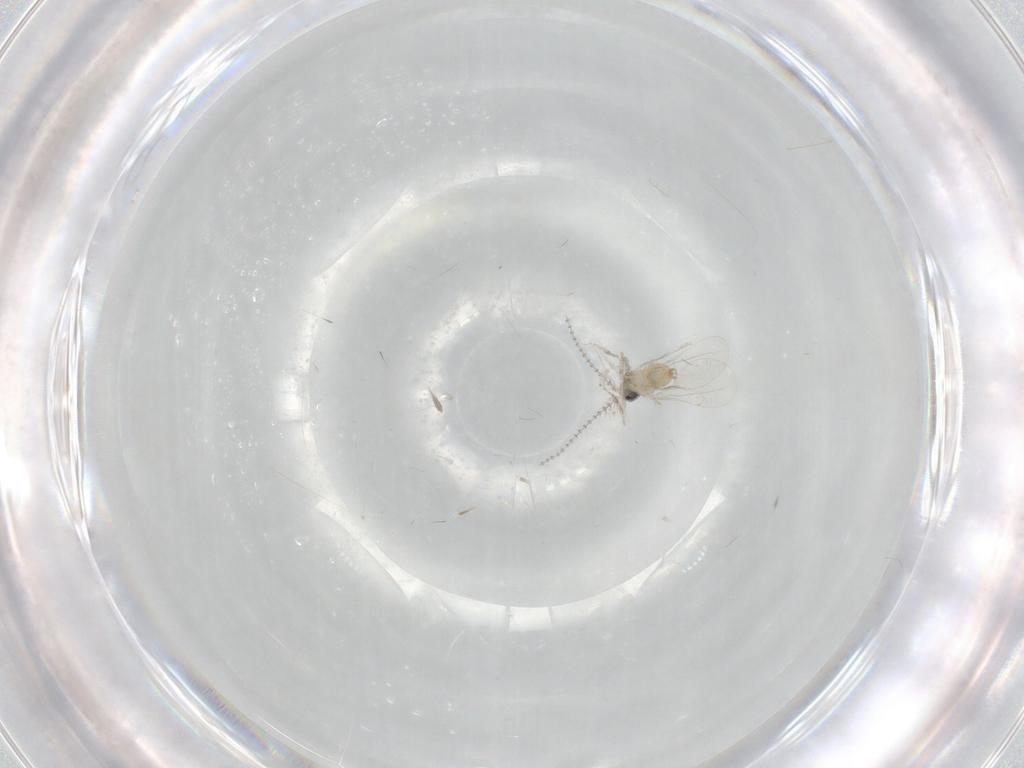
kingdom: Animalia
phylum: Arthropoda
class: Insecta
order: Diptera
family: Cecidomyiidae
